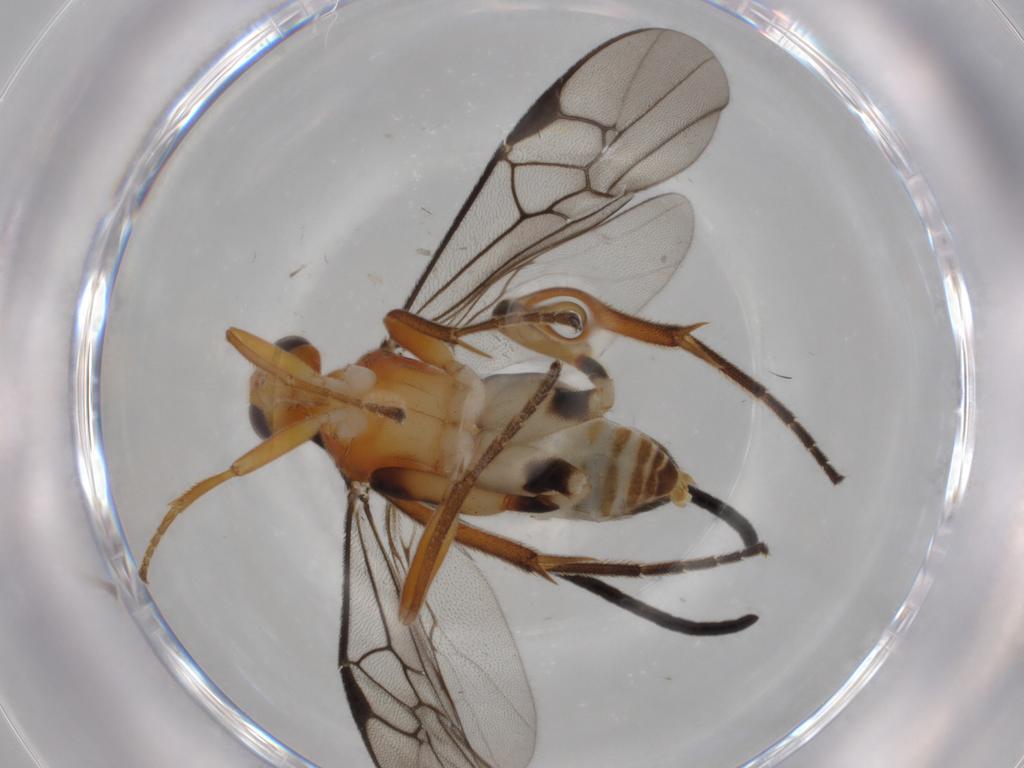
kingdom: Animalia
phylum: Arthropoda
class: Insecta
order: Hymenoptera
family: Diapriidae
